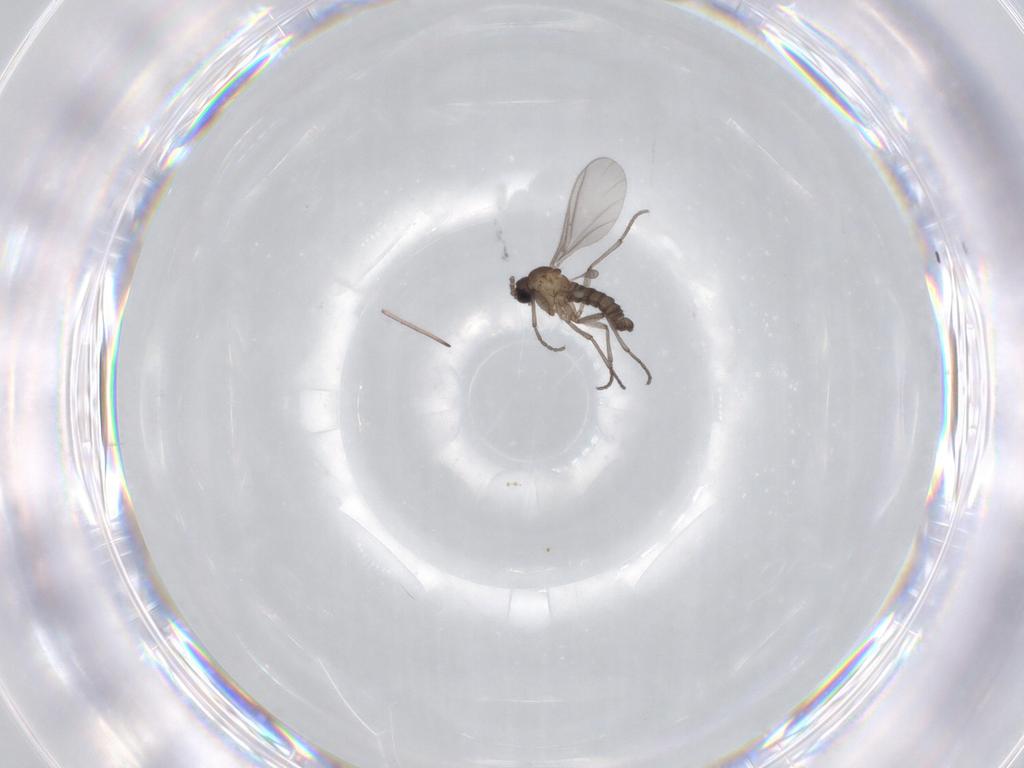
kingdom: Animalia
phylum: Arthropoda
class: Insecta
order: Diptera
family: Sciaridae
